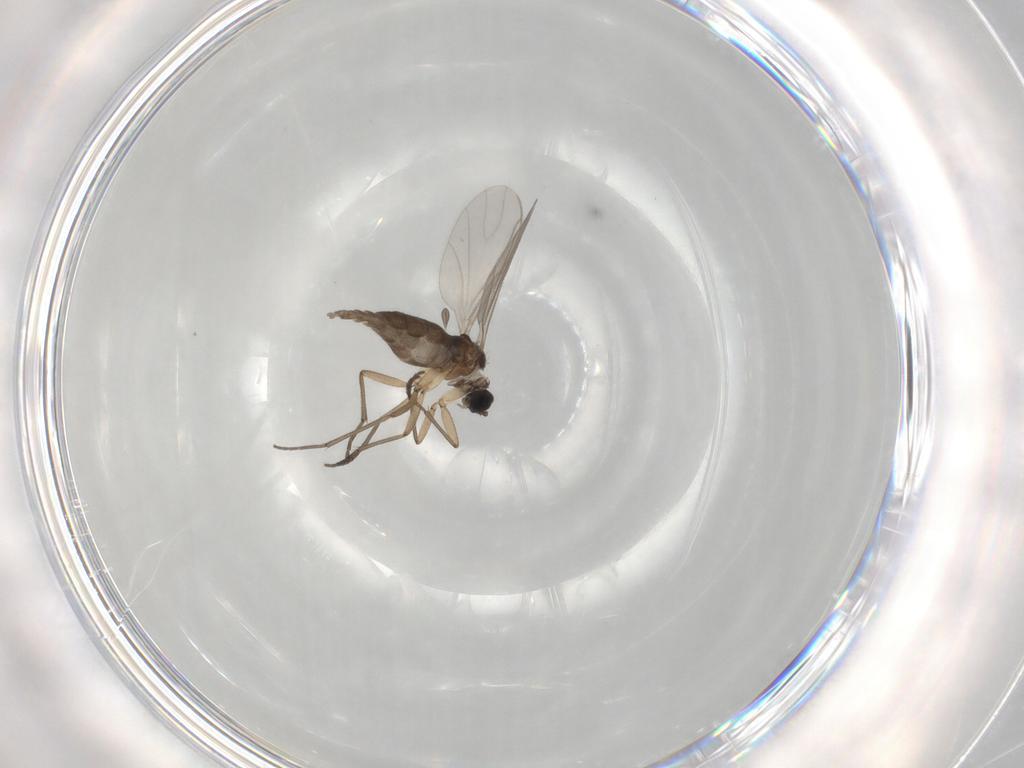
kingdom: Animalia
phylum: Arthropoda
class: Insecta
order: Diptera
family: Sciaridae
